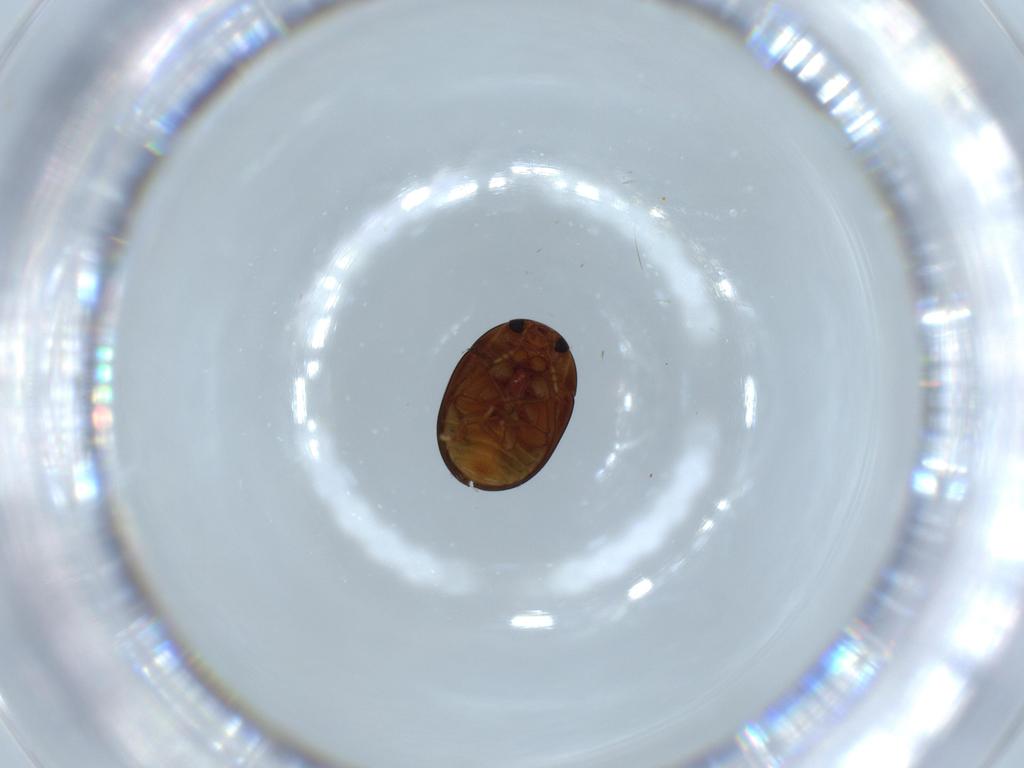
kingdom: Animalia
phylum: Arthropoda
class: Insecta
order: Coleoptera
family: Phalacridae
